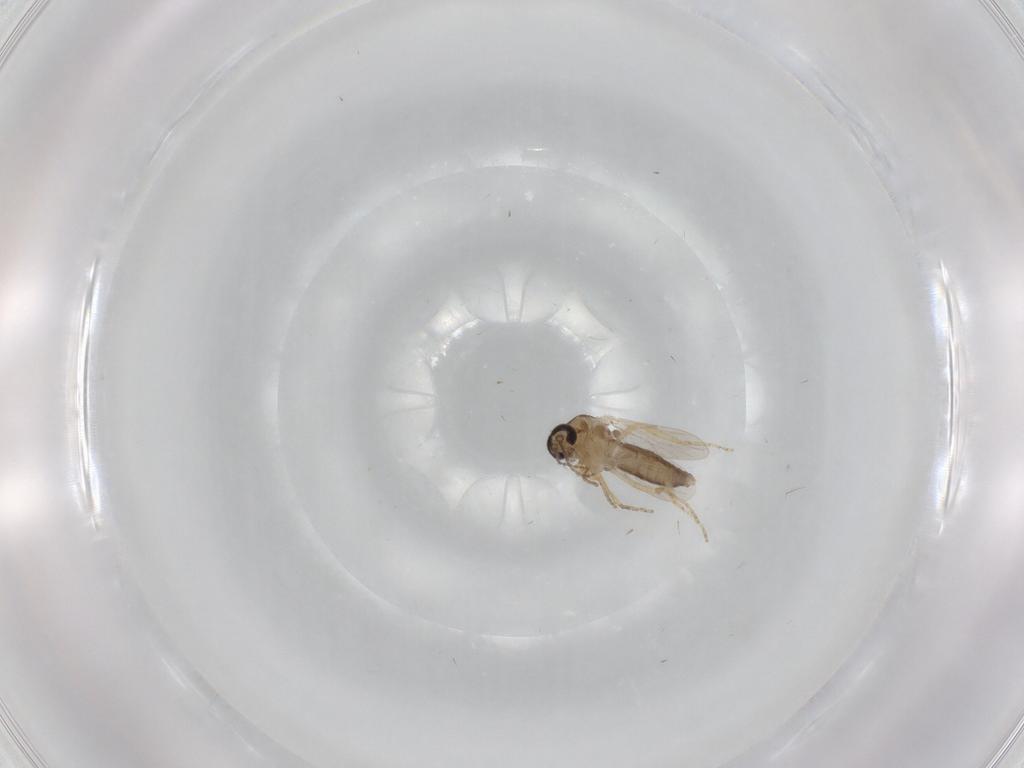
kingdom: Animalia
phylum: Arthropoda
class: Insecta
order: Diptera
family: Ceratopogonidae
